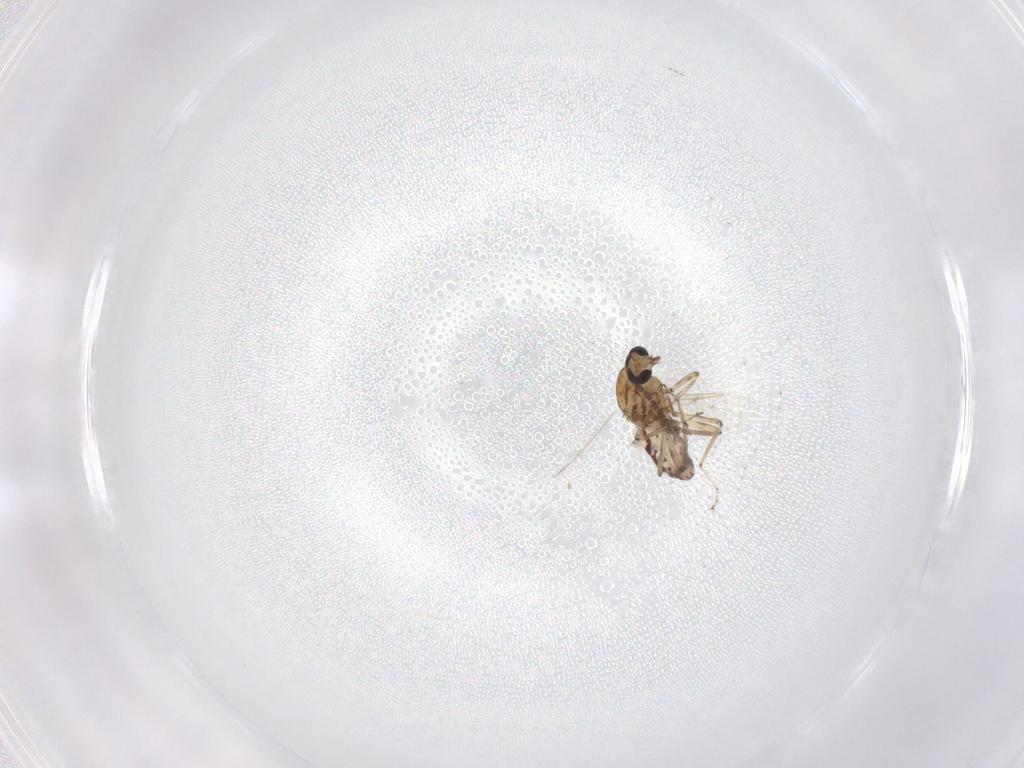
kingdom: Animalia
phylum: Arthropoda
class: Insecta
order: Diptera
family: Ceratopogonidae
